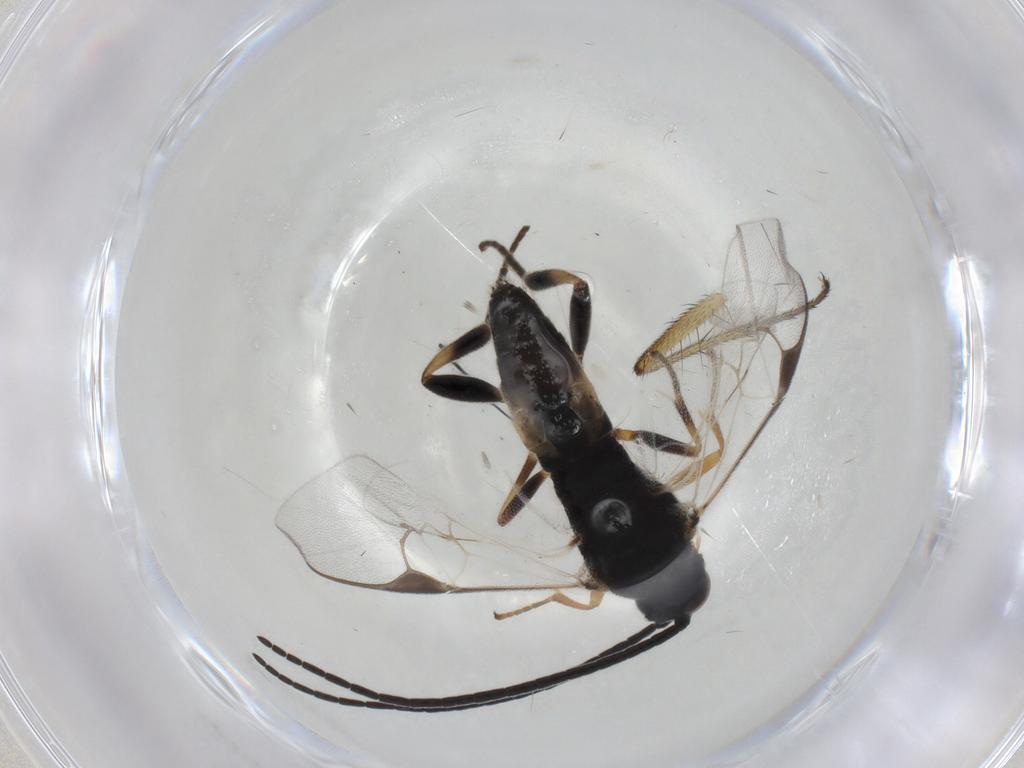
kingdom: Animalia
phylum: Arthropoda
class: Insecta
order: Hymenoptera
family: Braconidae
